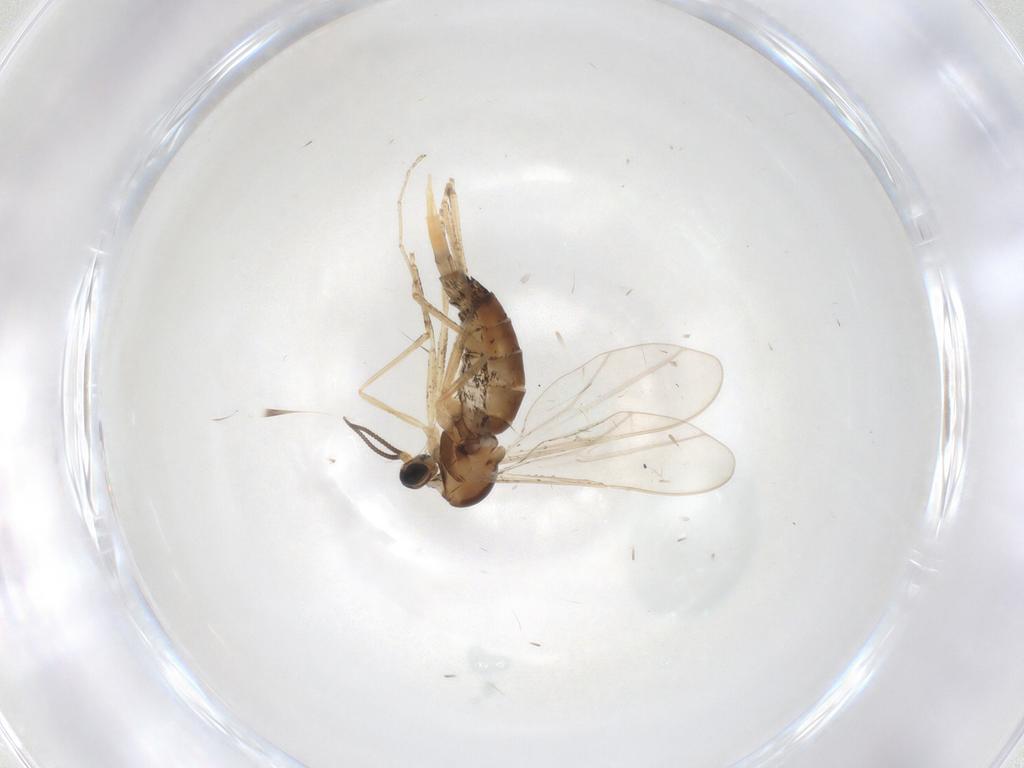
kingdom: Animalia
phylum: Arthropoda
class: Insecta
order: Diptera
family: Cecidomyiidae
